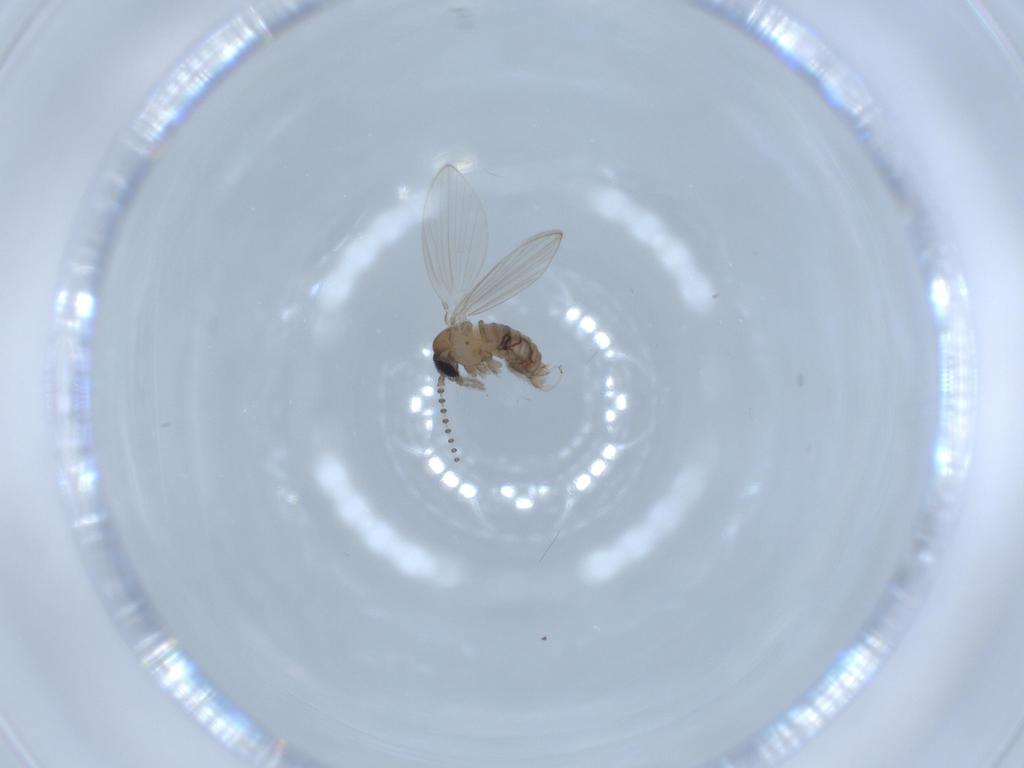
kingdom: Animalia
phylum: Arthropoda
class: Insecta
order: Diptera
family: Psychodidae
